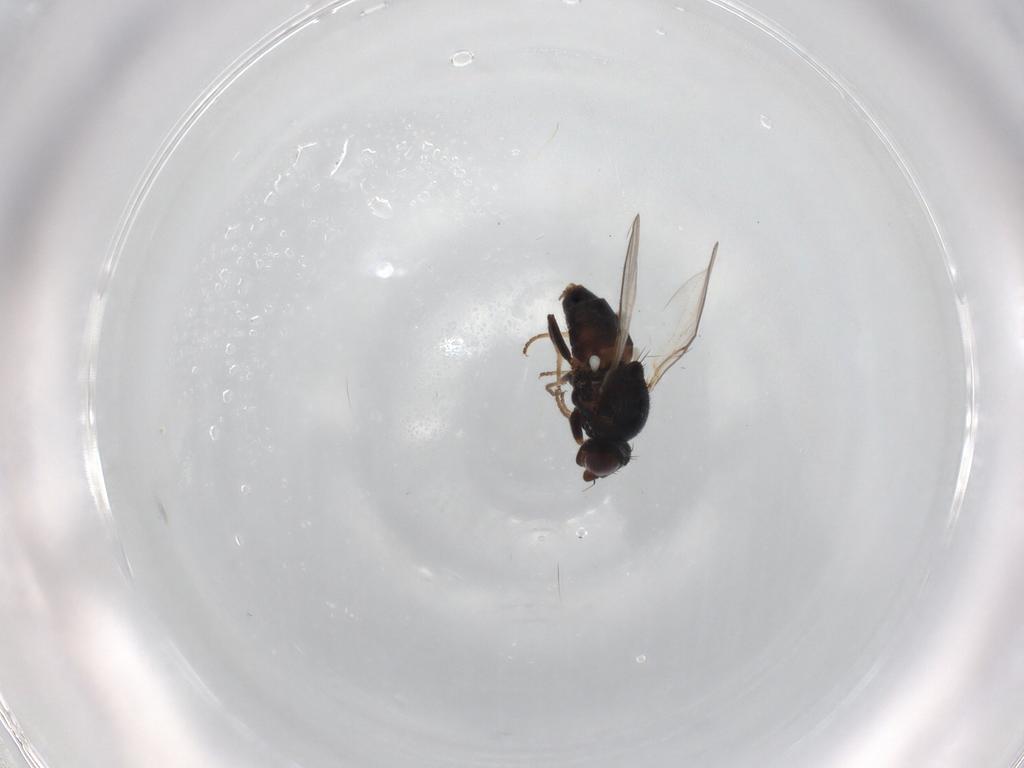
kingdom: Animalia
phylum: Arthropoda
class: Insecta
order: Diptera
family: Chloropidae
